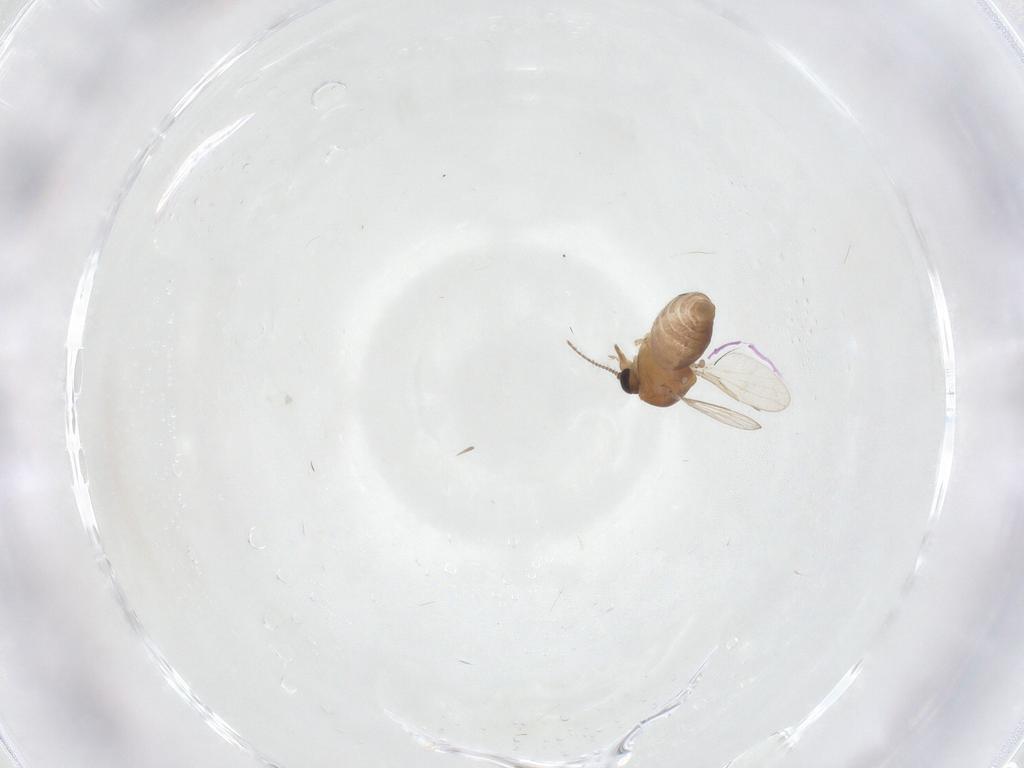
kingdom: Animalia
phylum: Arthropoda
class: Insecta
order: Diptera
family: Ceratopogonidae
